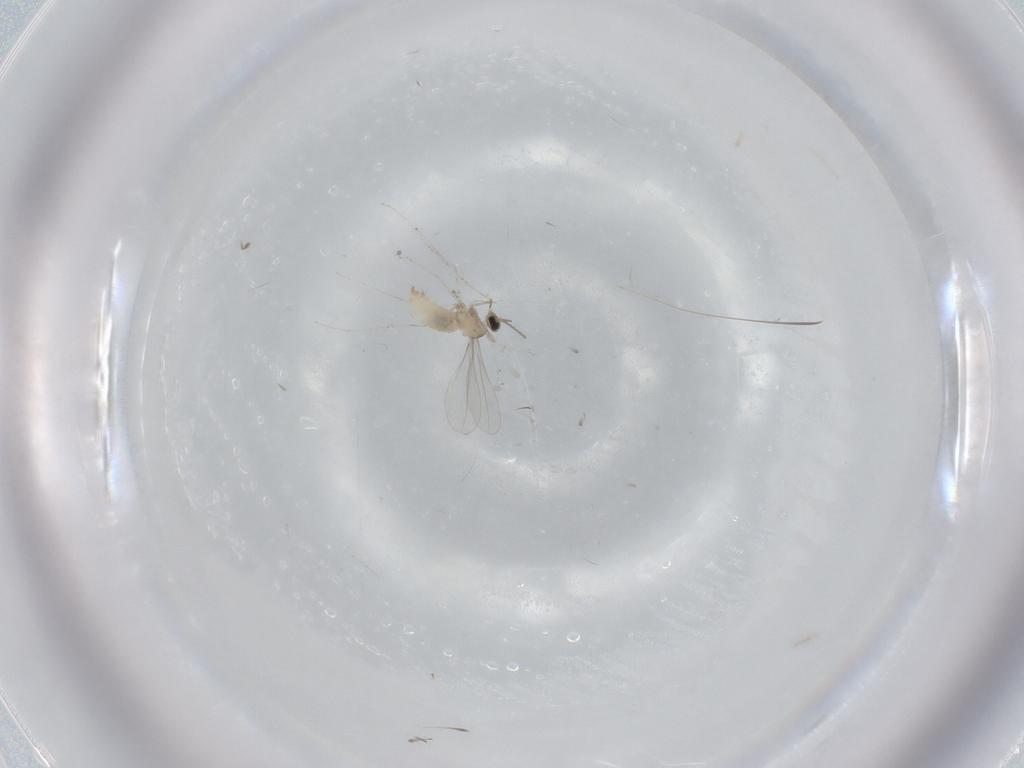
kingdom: Animalia
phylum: Arthropoda
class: Insecta
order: Diptera
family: Cecidomyiidae
